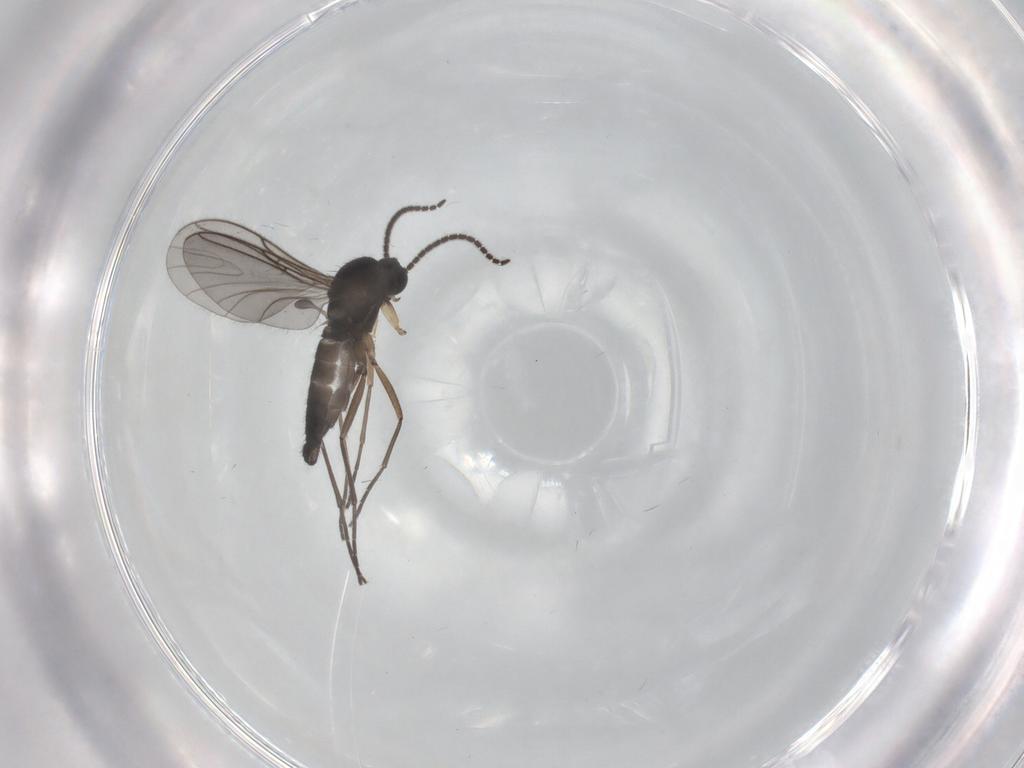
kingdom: Animalia
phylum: Arthropoda
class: Insecta
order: Diptera
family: Sciaridae
